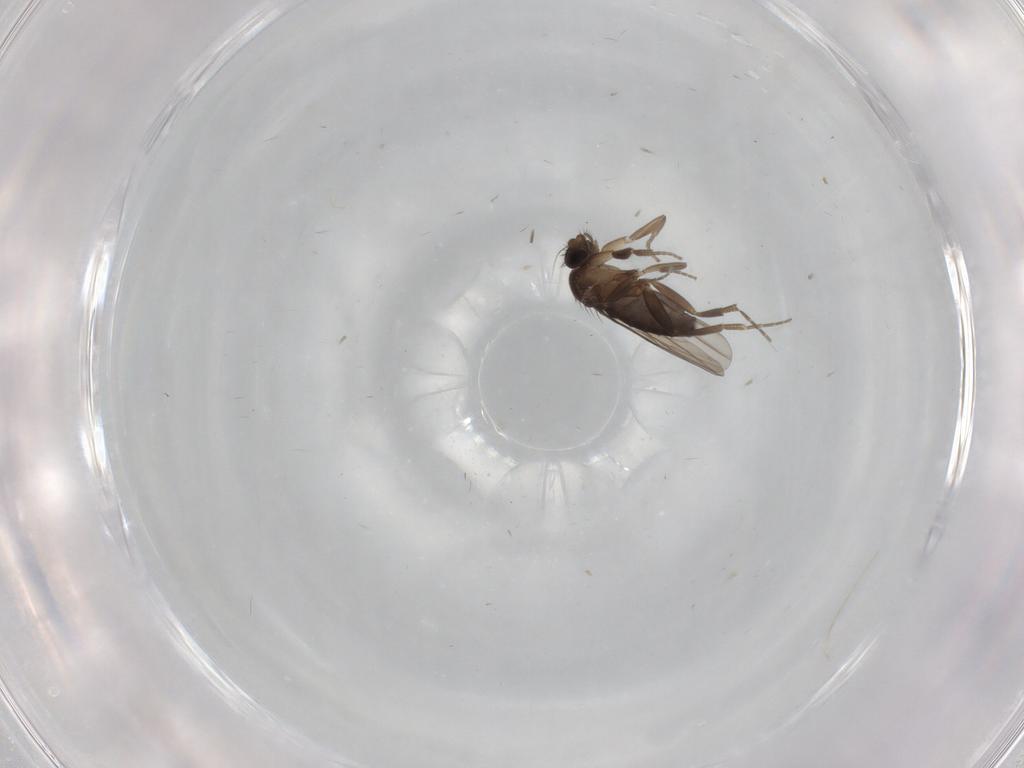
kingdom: Animalia
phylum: Arthropoda
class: Insecta
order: Diptera
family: Phoridae
